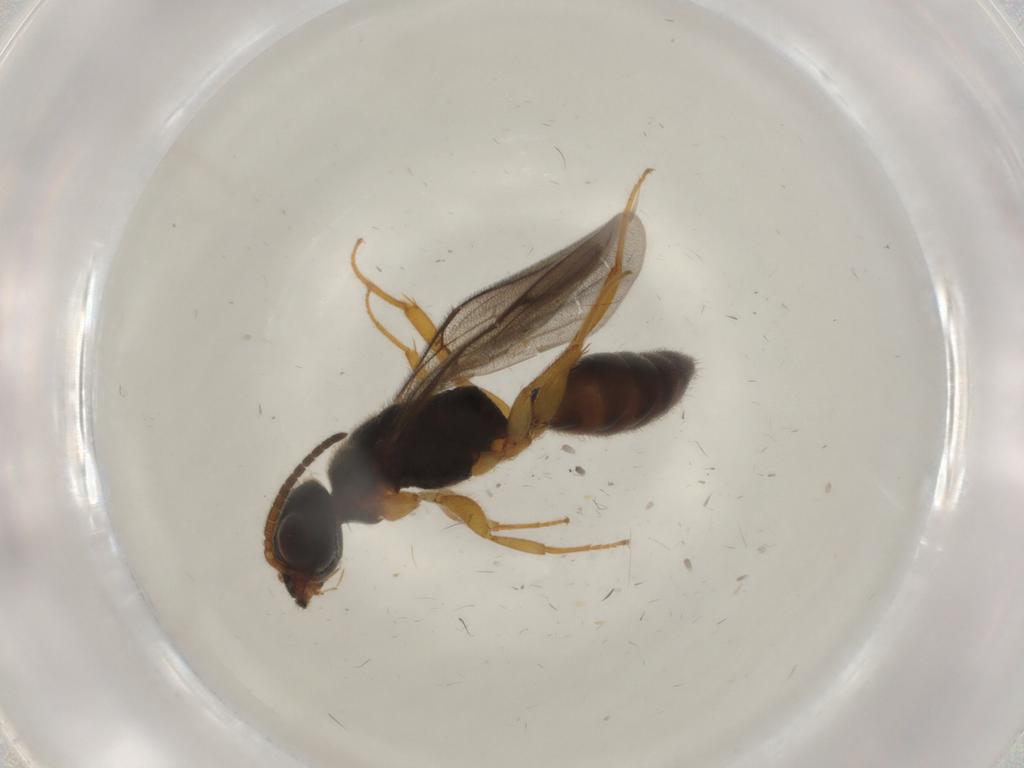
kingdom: Animalia
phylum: Arthropoda
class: Insecta
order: Hymenoptera
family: Bethylidae
